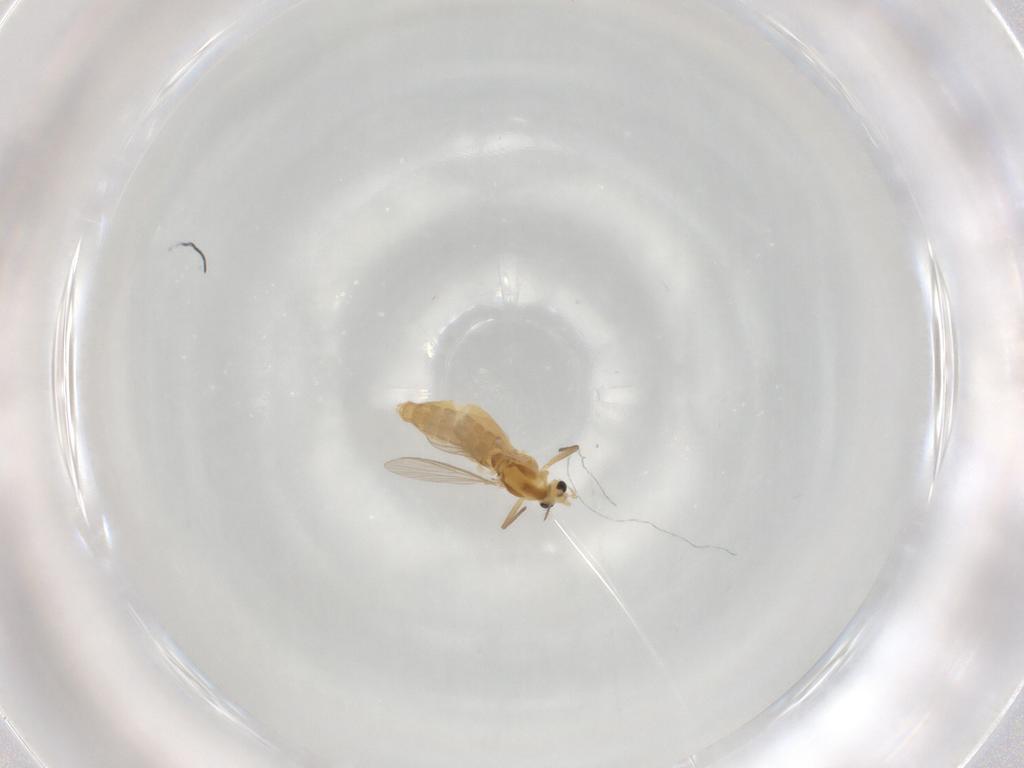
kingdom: Animalia
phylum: Arthropoda
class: Insecta
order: Diptera
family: Chironomidae
